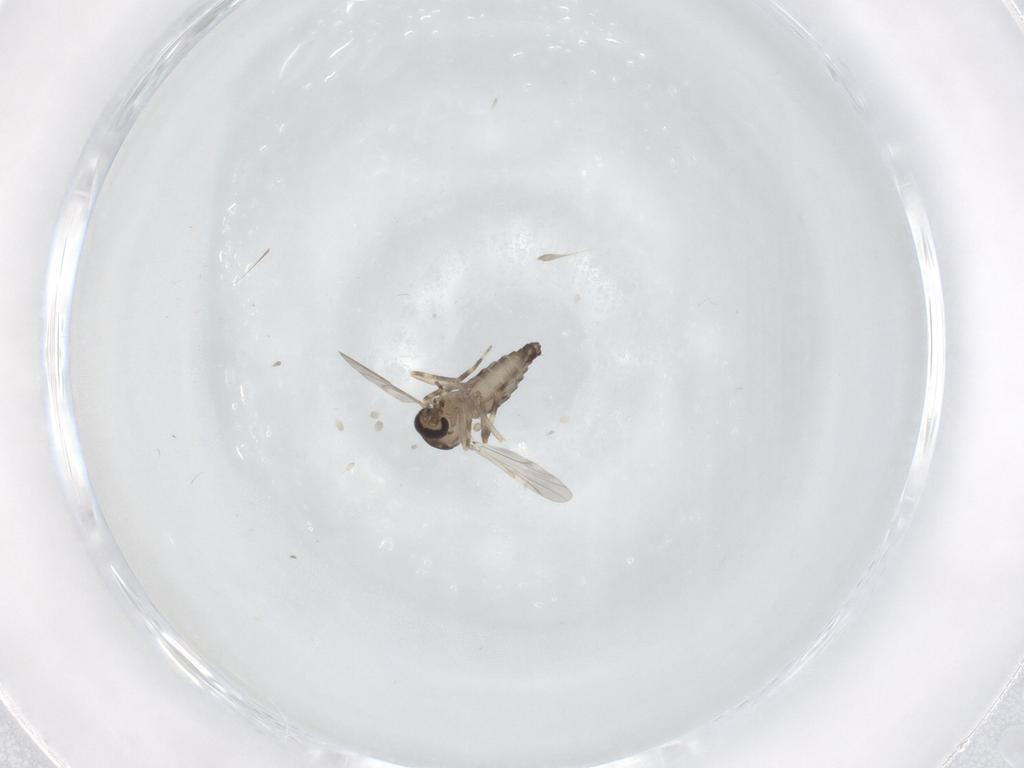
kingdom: Animalia
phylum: Arthropoda
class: Insecta
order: Diptera
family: Ceratopogonidae
